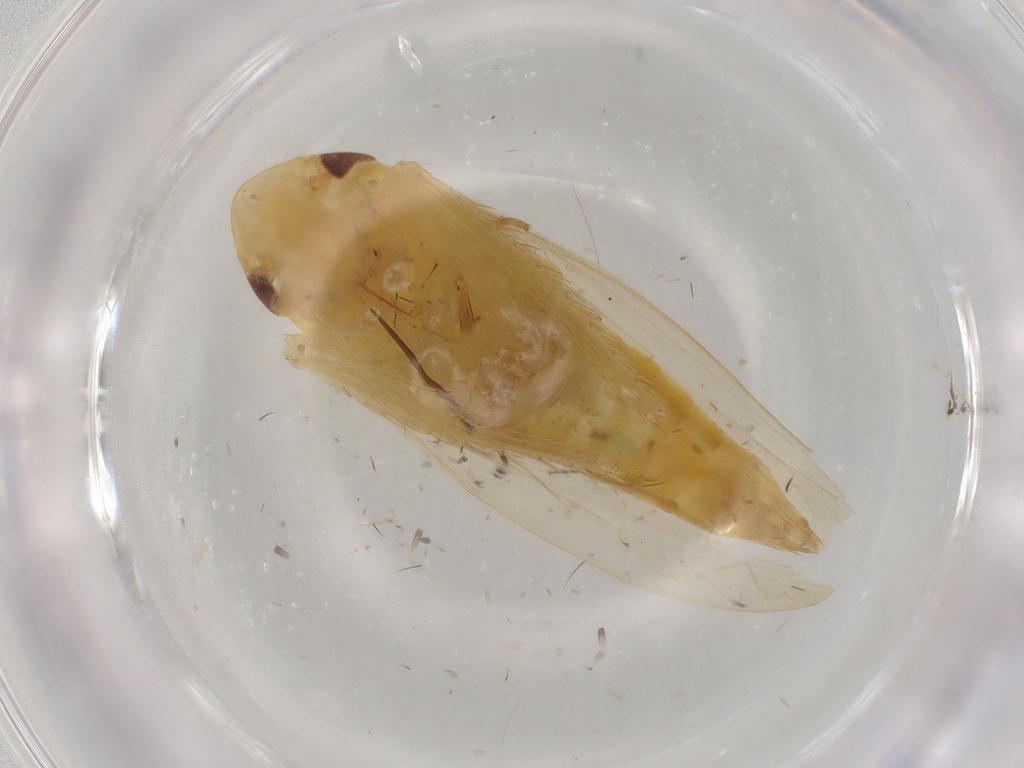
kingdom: Animalia
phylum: Arthropoda
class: Insecta
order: Hemiptera
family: Cicadellidae
